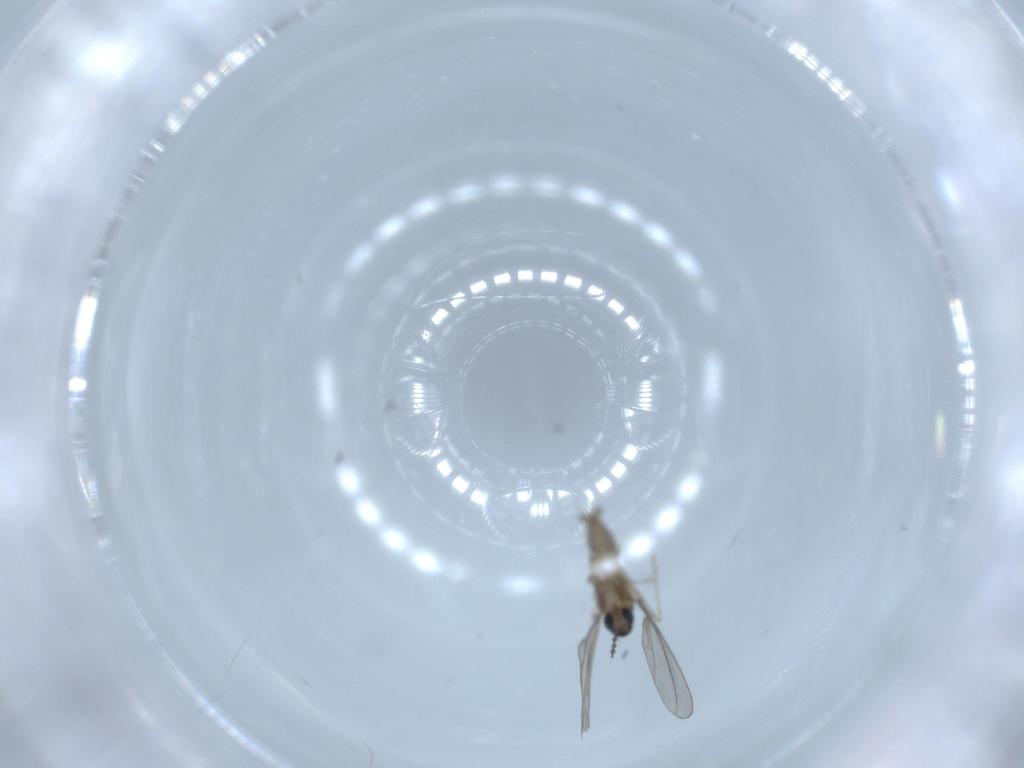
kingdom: Animalia
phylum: Arthropoda
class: Insecta
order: Diptera
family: Cecidomyiidae
